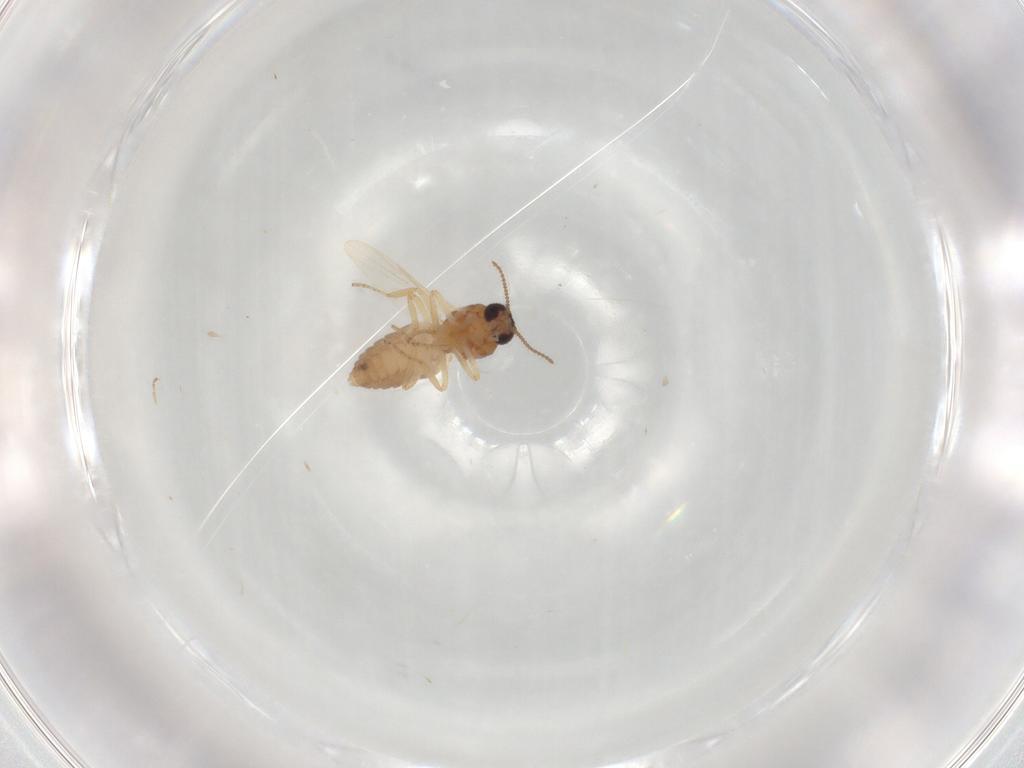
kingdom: Animalia
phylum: Arthropoda
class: Insecta
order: Diptera
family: Ceratopogonidae
